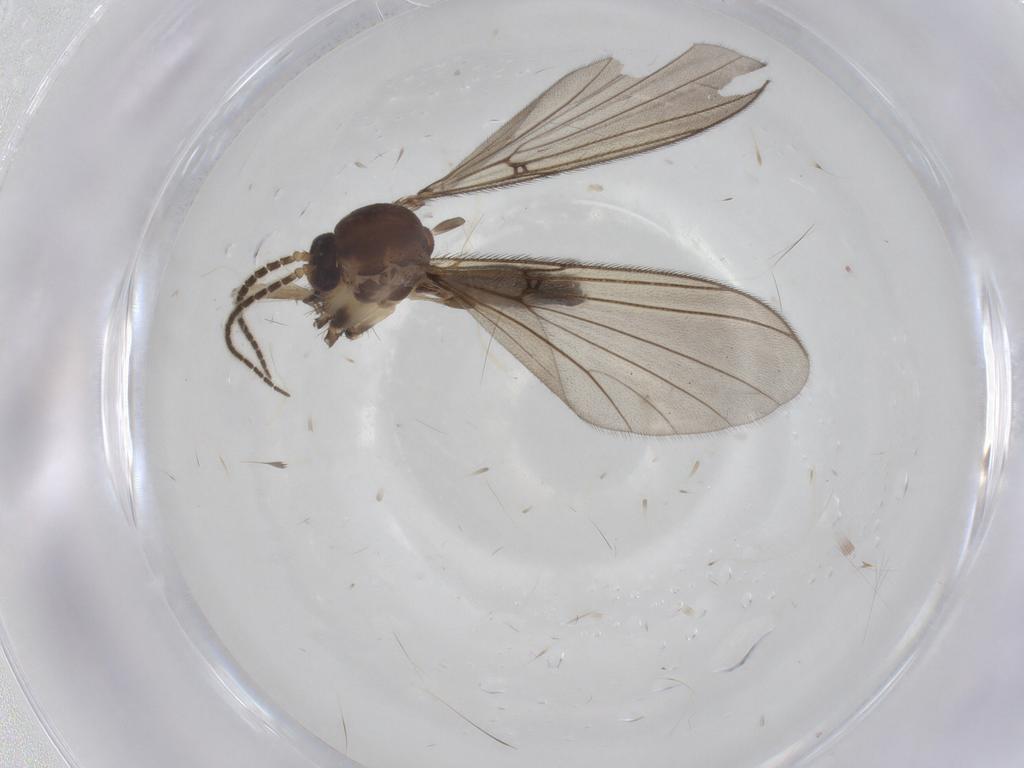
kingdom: Animalia
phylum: Arthropoda
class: Insecta
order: Diptera
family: Mycetophilidae
